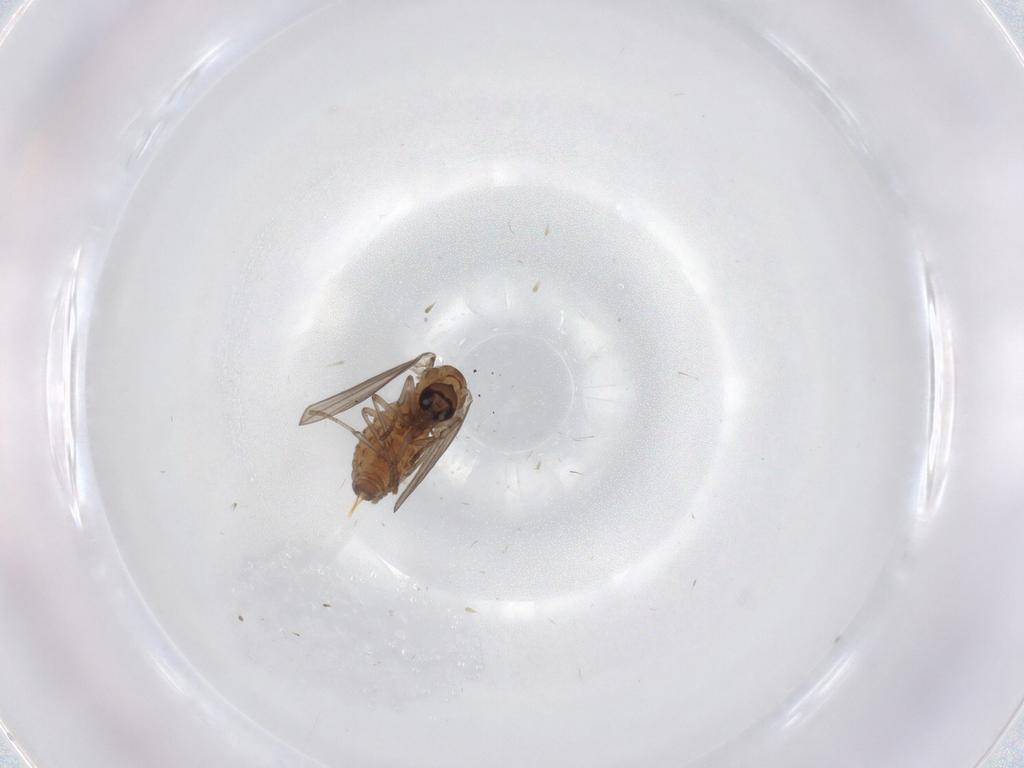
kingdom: Animalia
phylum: Arthropoda
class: Insecta
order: Diptera
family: Psychodidae
